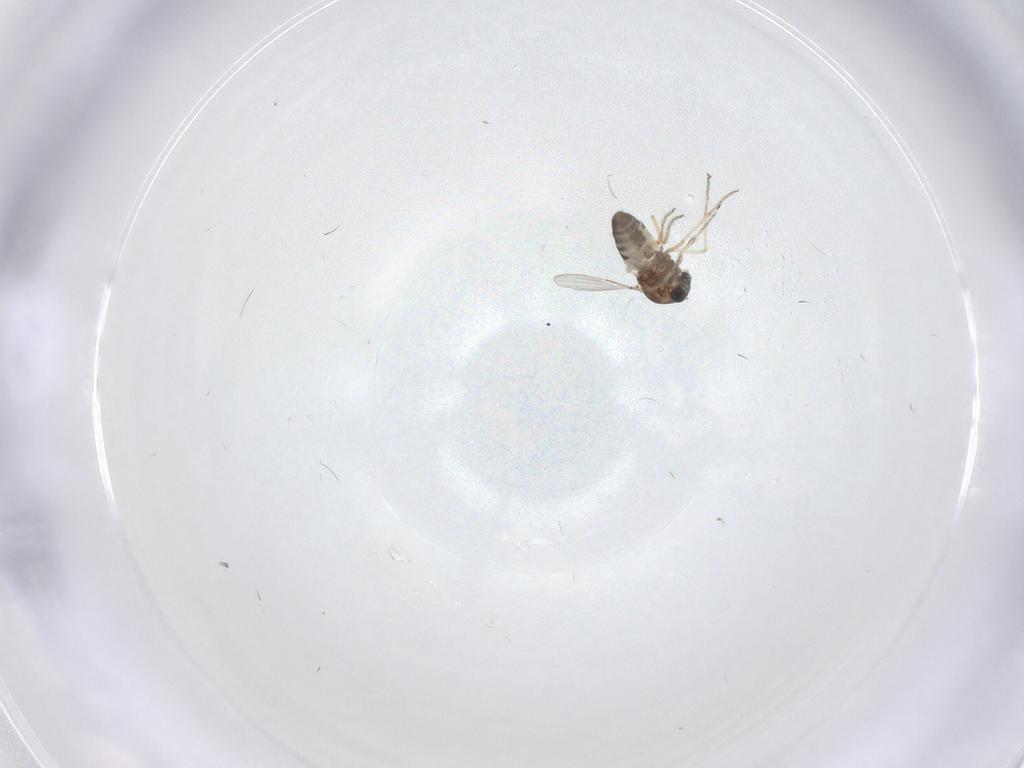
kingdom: Animalia
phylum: Arthropoda
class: Insecta
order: Diptera
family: Ceratopogonidae
